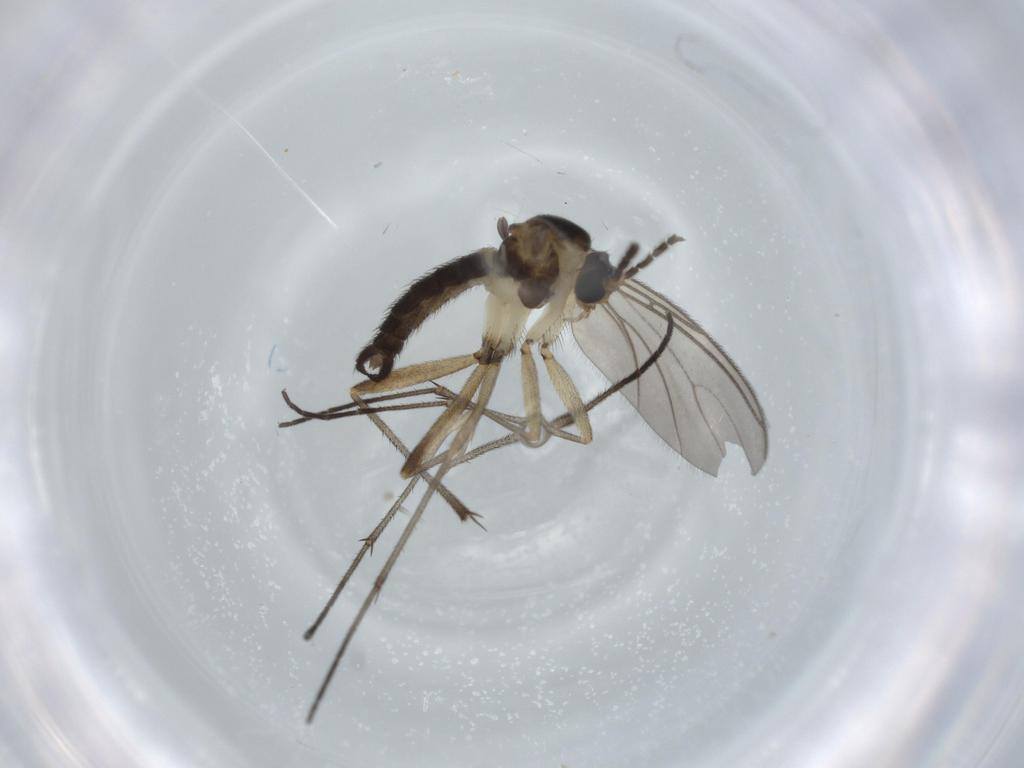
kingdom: Animalia
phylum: Arthropoda
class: Insecta
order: Diptera
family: Sciaridae
